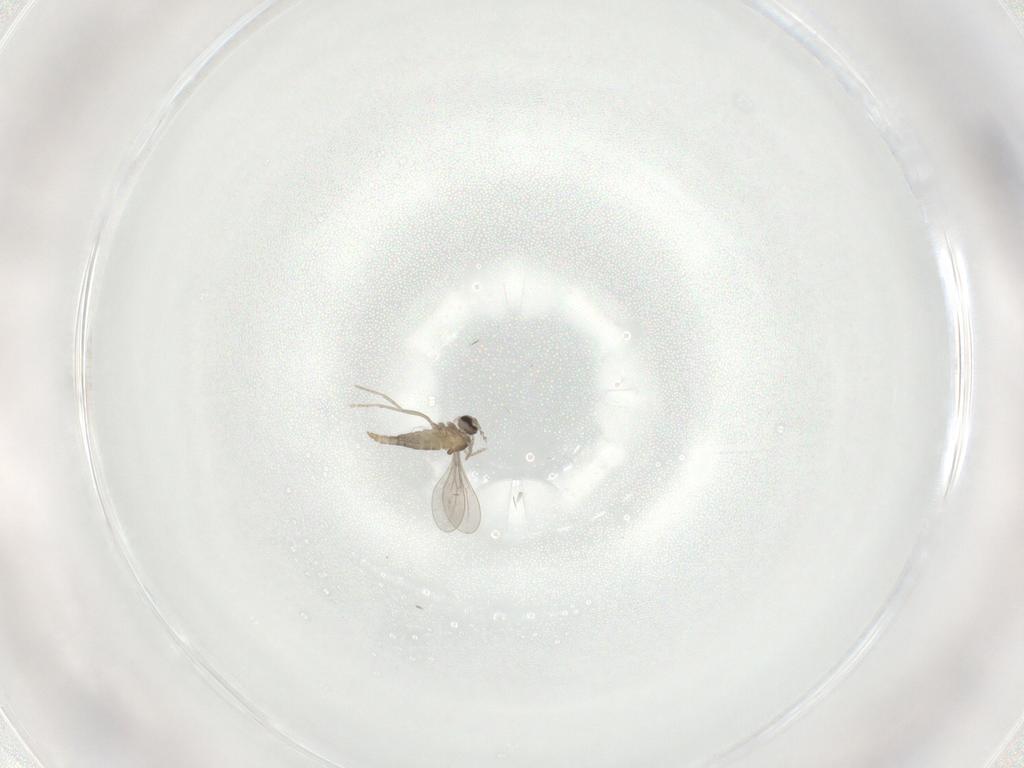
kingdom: Animalia
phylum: Arthropoda
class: Insecta
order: Diptera
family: Cecidomyiidae
